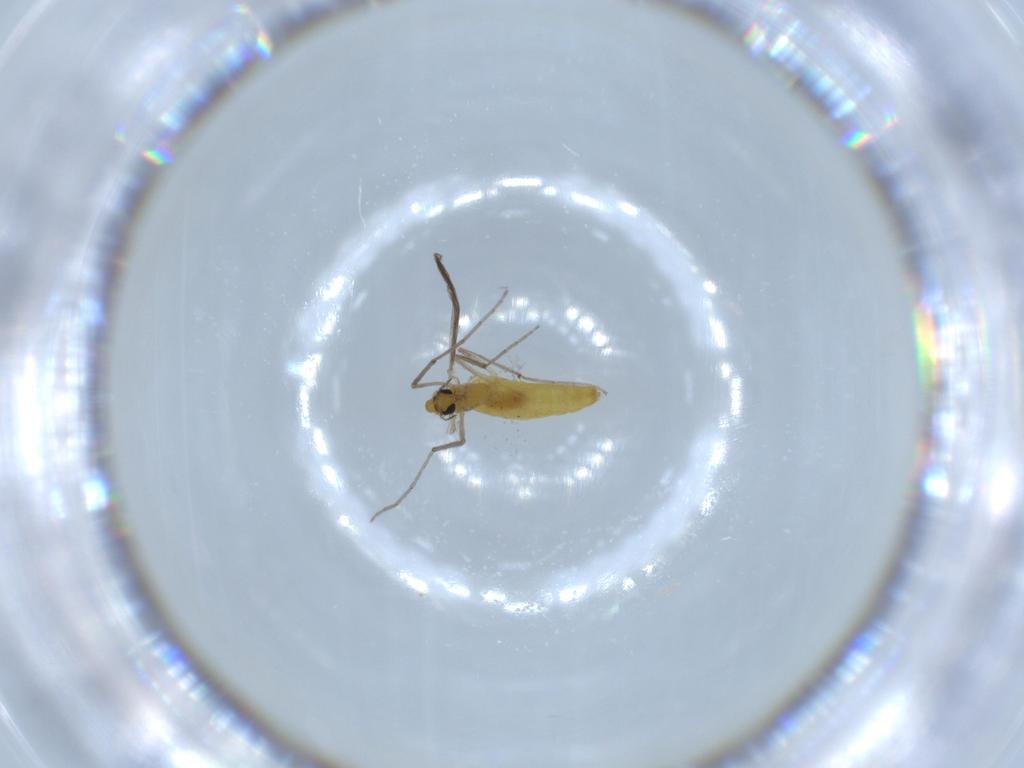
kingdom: Animalia
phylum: Arthropoda
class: Insecta
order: Diptera
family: Chironomidae
